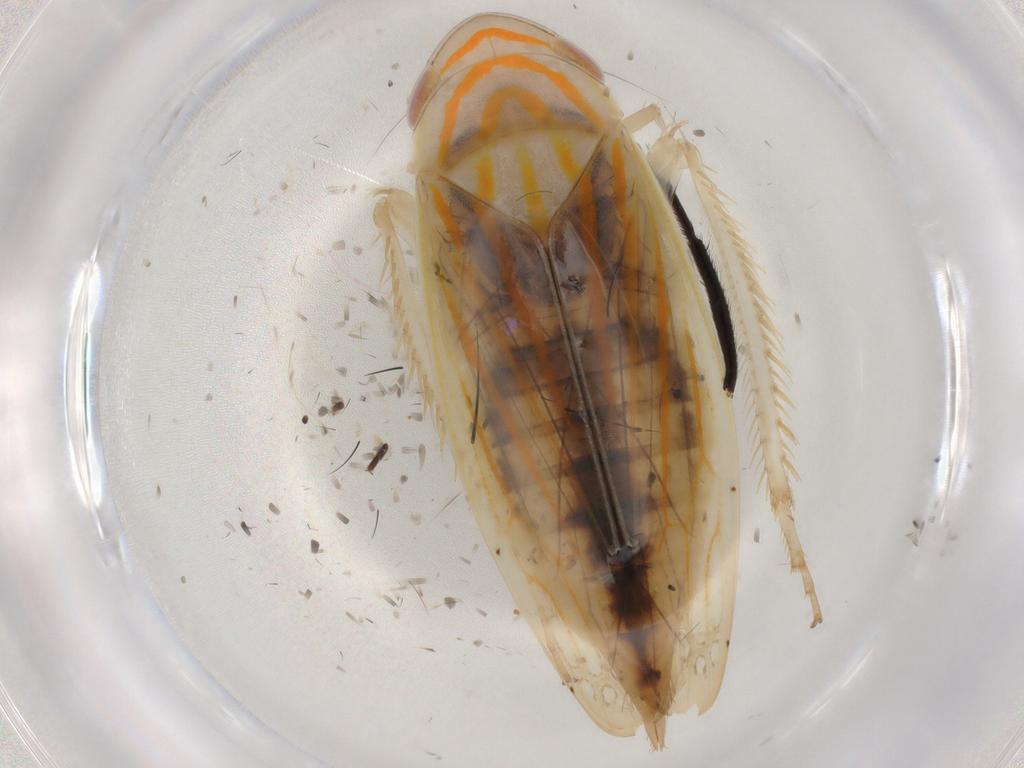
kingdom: Animalia
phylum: Arthropoda
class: Insecta
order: Hemiptera
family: Cicadellidae
